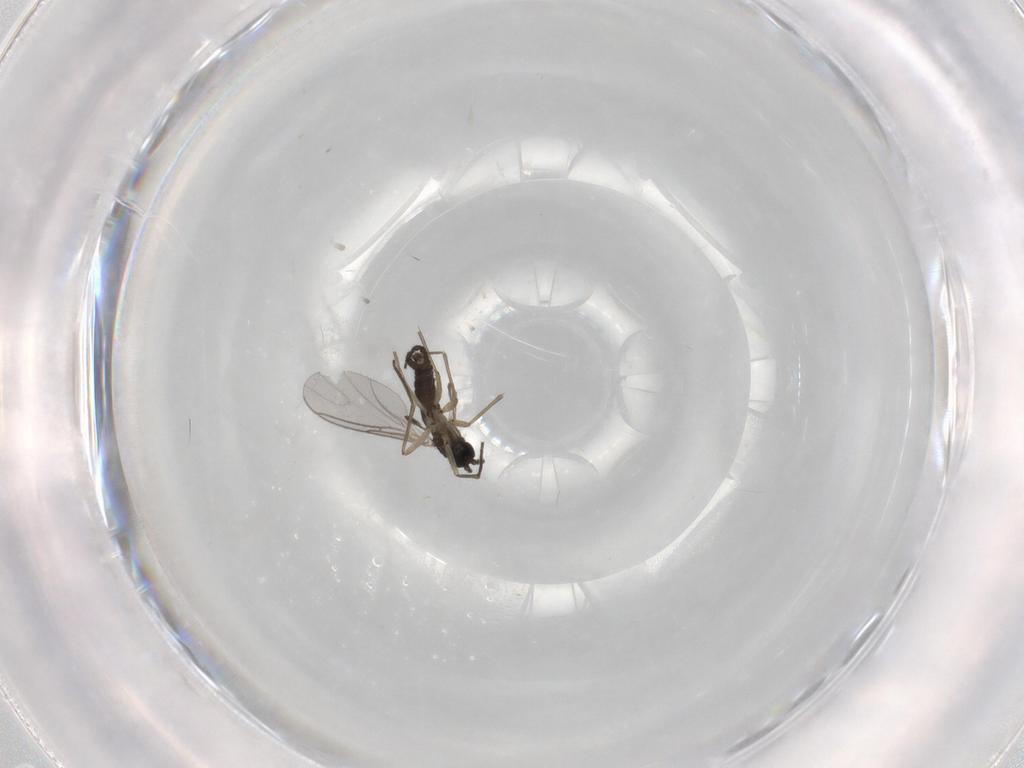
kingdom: Animalia
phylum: Arthropoda
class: Insecta
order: Diptera
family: Sciaridae
